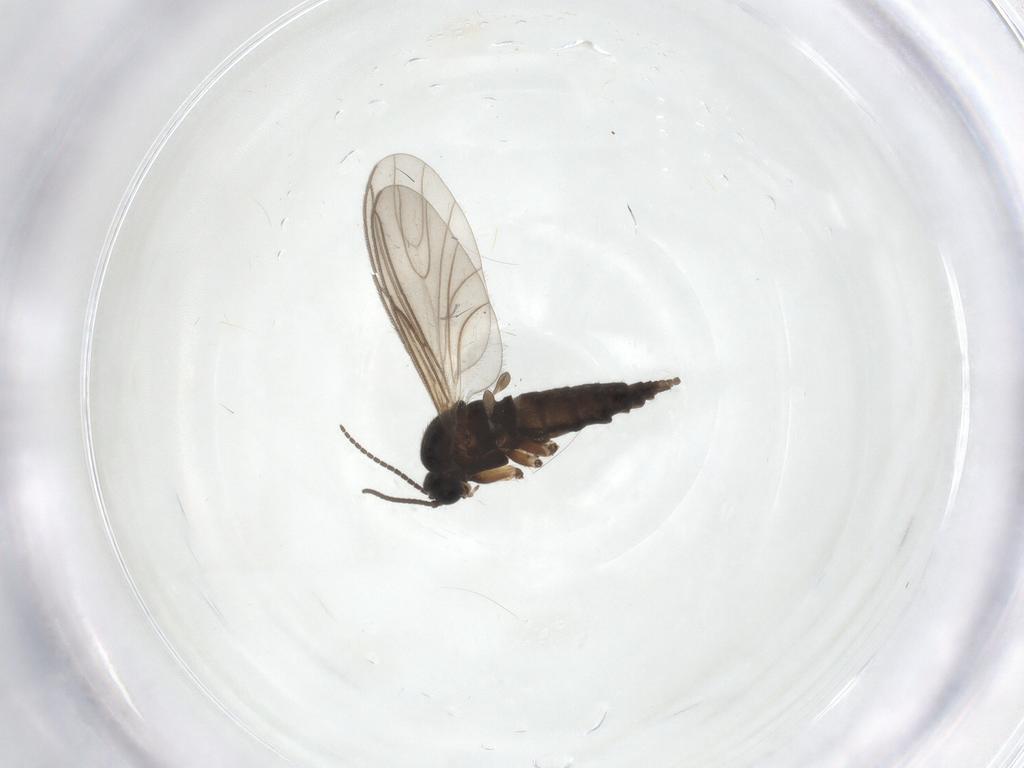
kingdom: Animalia
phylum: Arthropoda
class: Insecta
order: Diptera
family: Sciaridae
